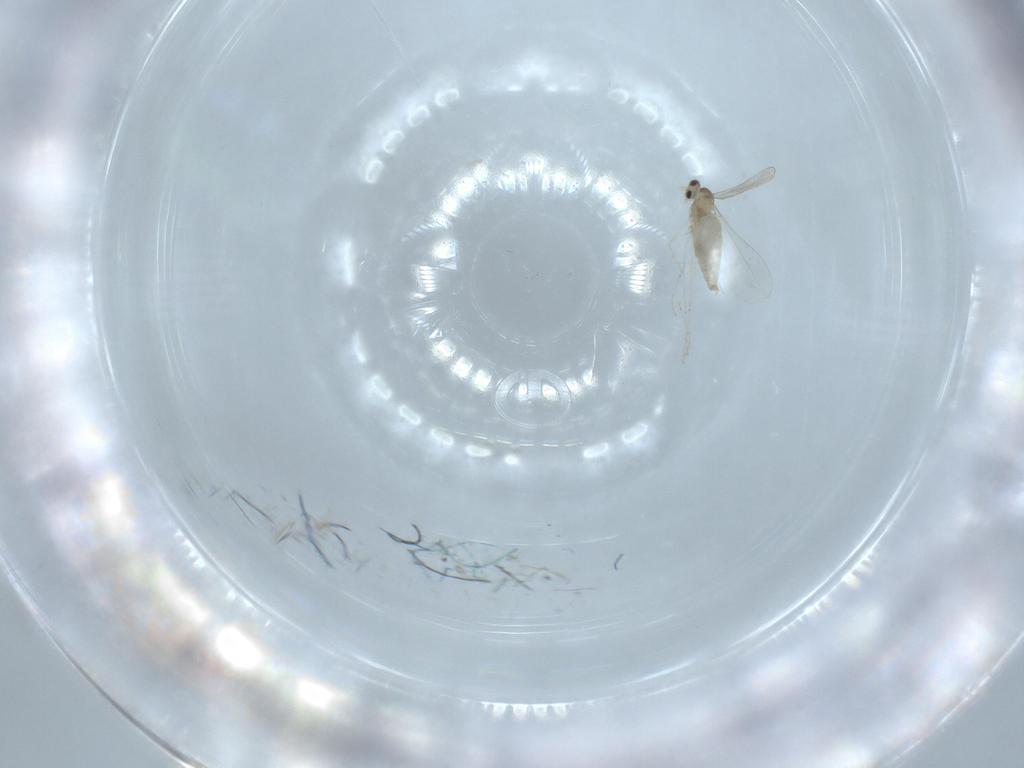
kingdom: Animalia
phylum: Arthropoda
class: Insecta
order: Diptera
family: Cecidomyiidae
